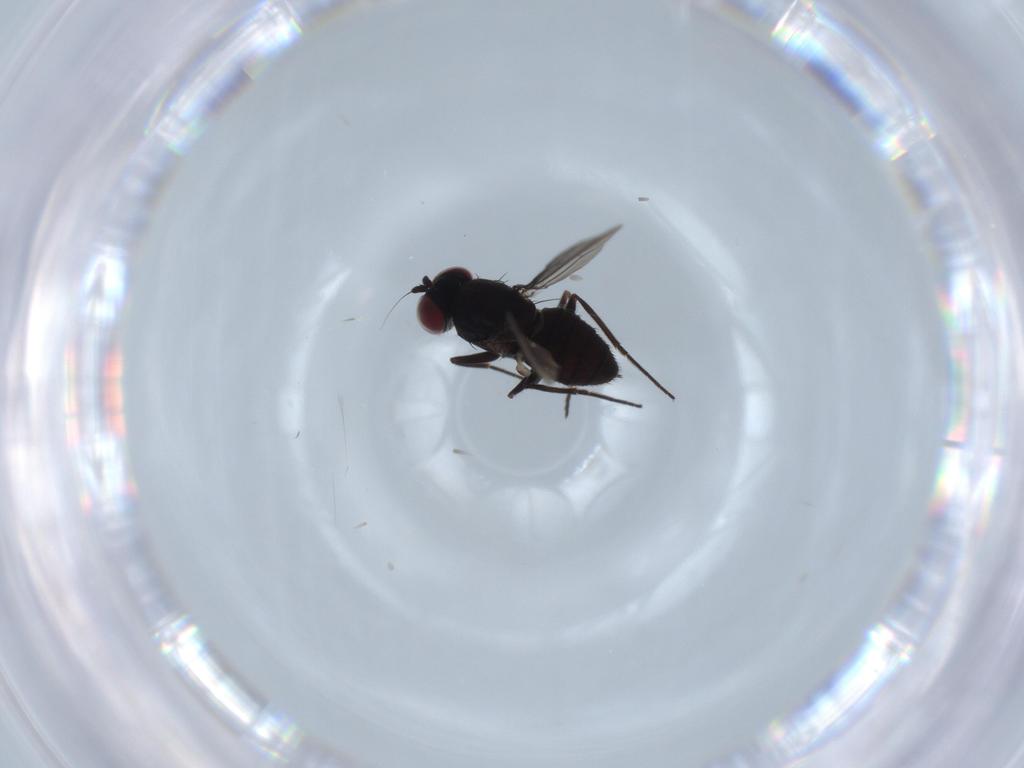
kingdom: Animalia
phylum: Arthropoda
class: Insecta
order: Diptera
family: Dolichopodidae
